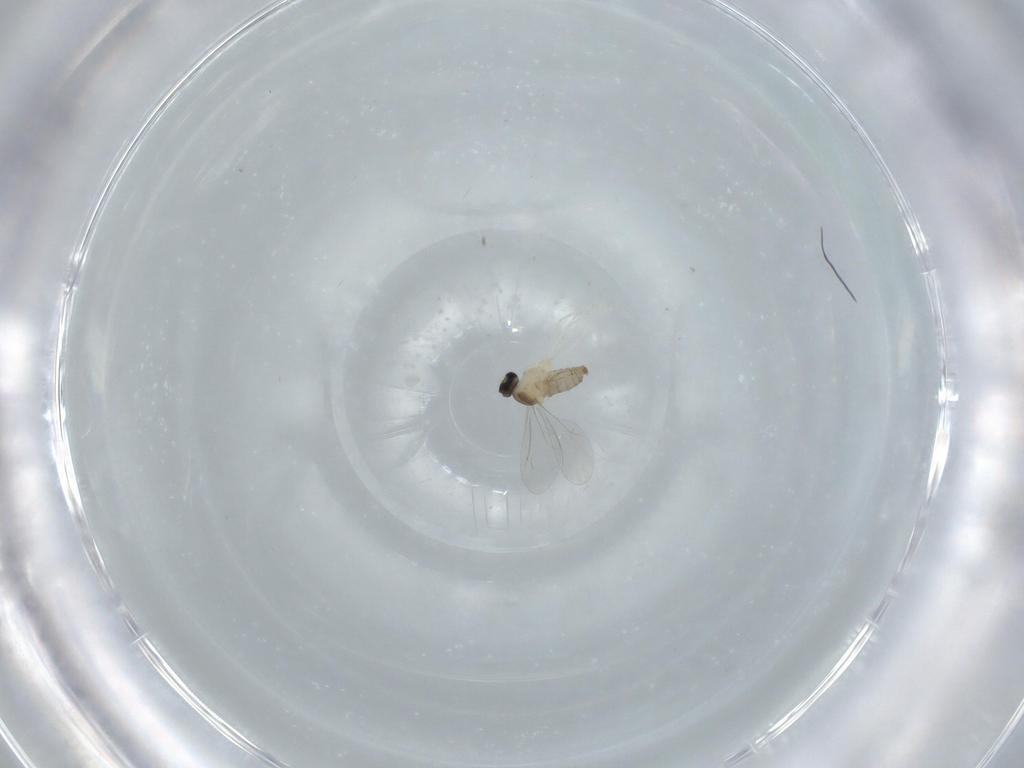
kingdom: Animalia
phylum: Arthropoda
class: Insecta
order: Diptera
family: Cecidomyiidae
